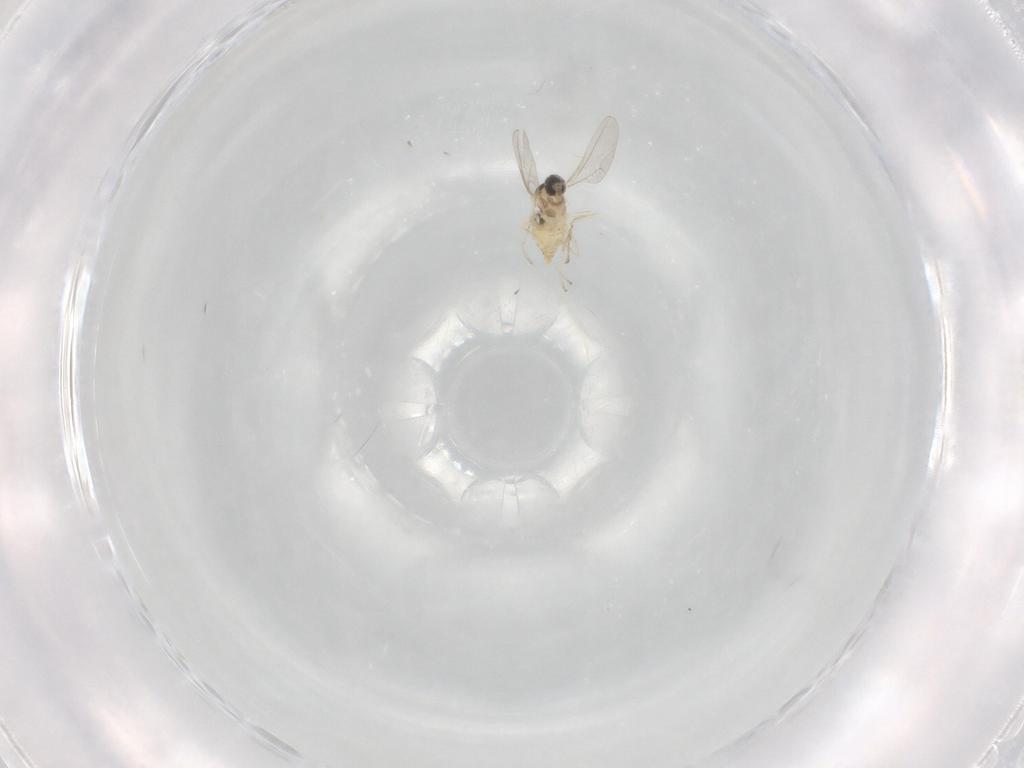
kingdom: Animalia
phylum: Arthropoda
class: Insecta
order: Diptera
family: Cecidomyiidae
